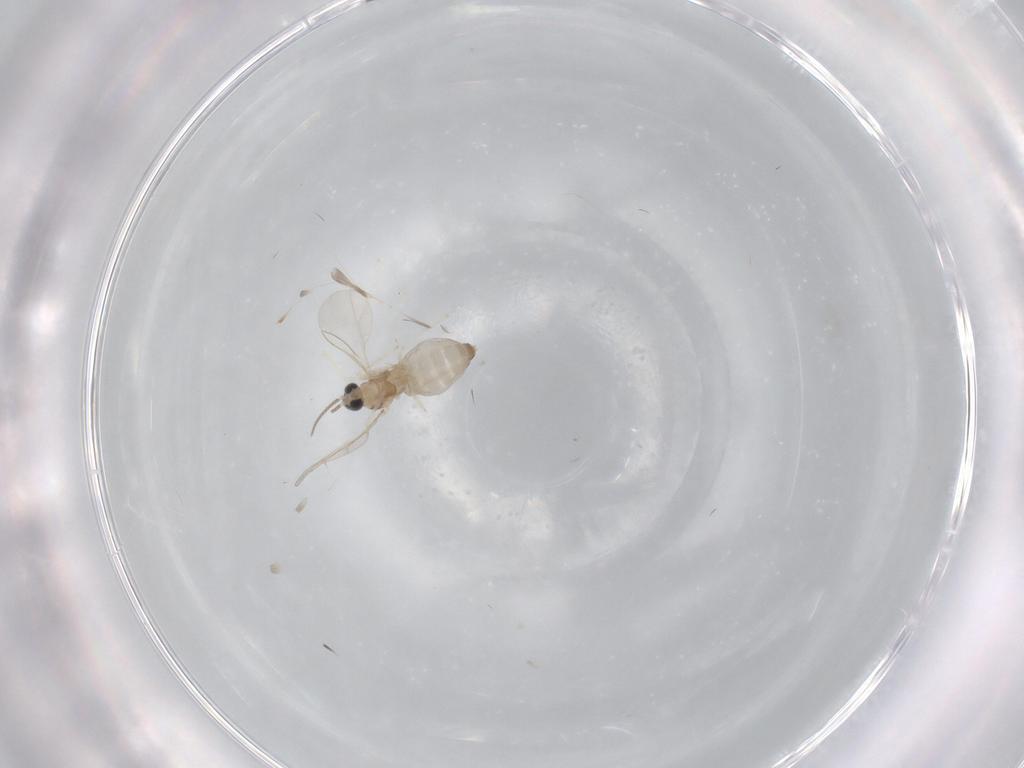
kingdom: Animalia
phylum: Arthropoda
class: Insecta
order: Diptera
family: Cecidomyiidae
